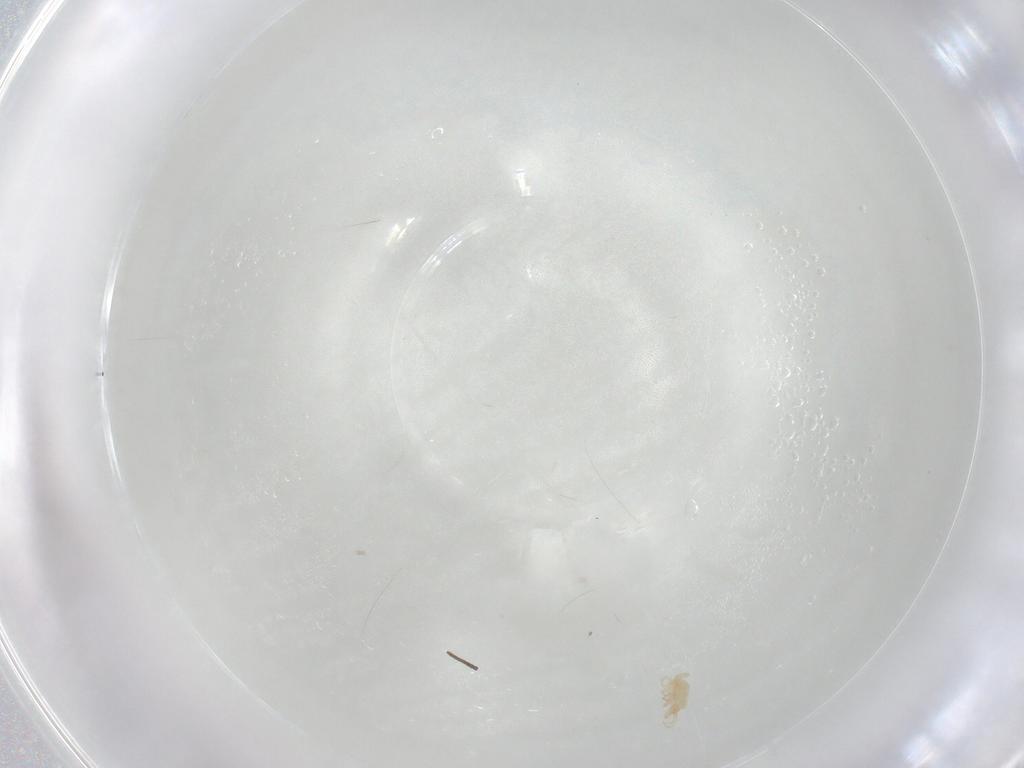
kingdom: Animalia
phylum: Arthropoda
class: Arachnida
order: Trombidiformes
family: Cunaxidae
